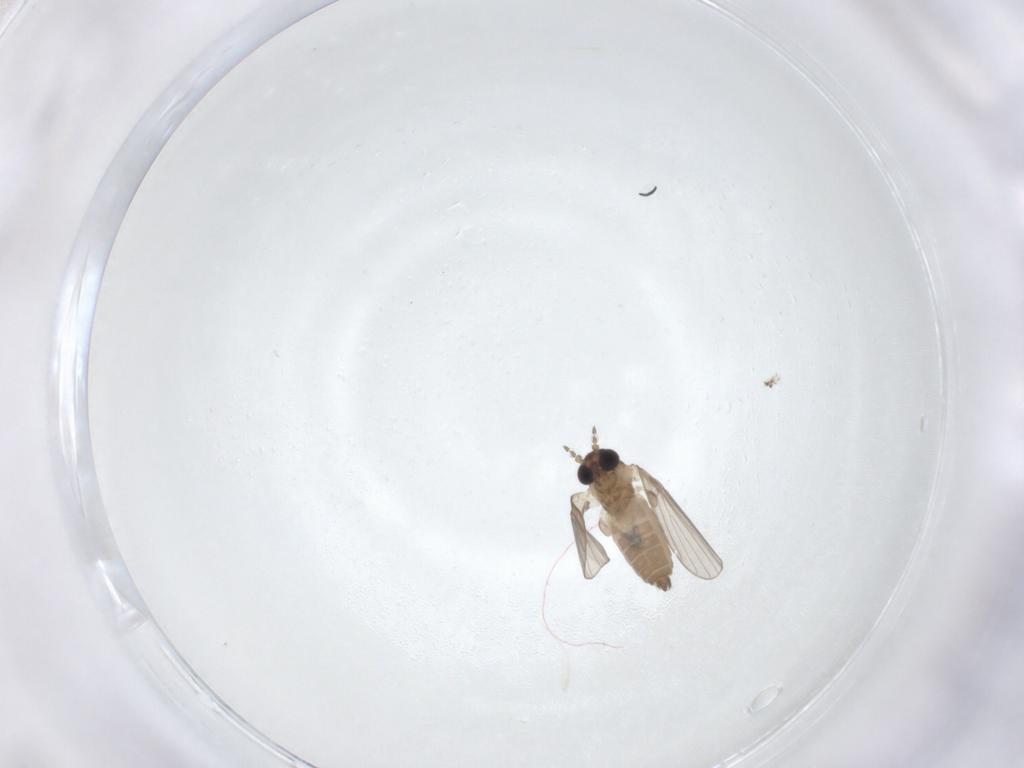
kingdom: Animalia
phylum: Arthropoda
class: Insecta
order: Diptera
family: Cecidomyiidae
